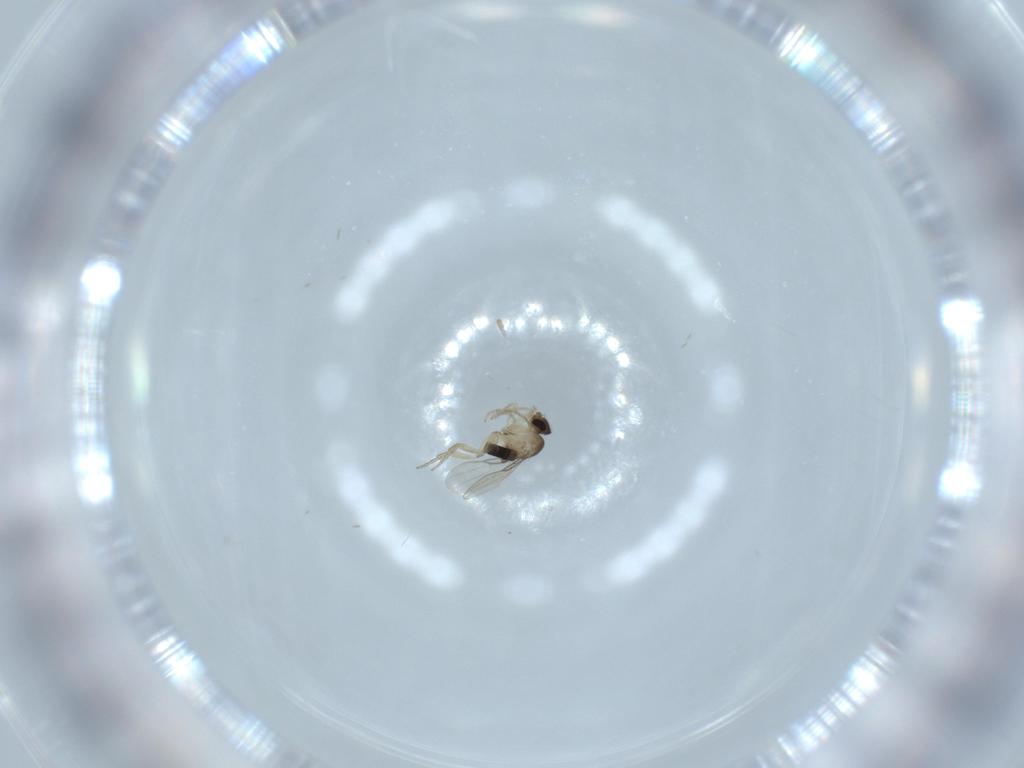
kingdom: Animalia
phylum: Arthropoda
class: Insecta
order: Diptera
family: Phoridae
